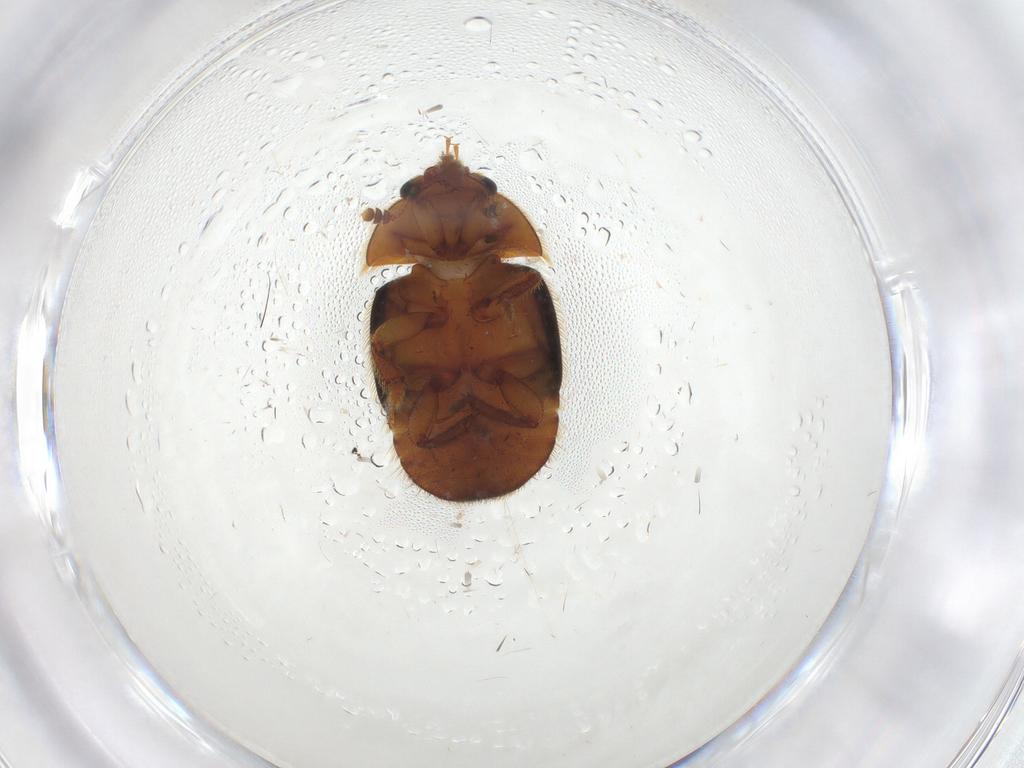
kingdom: Animalia
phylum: Arthropoda
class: Insecta
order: Coleoptera
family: Nitidulidae
